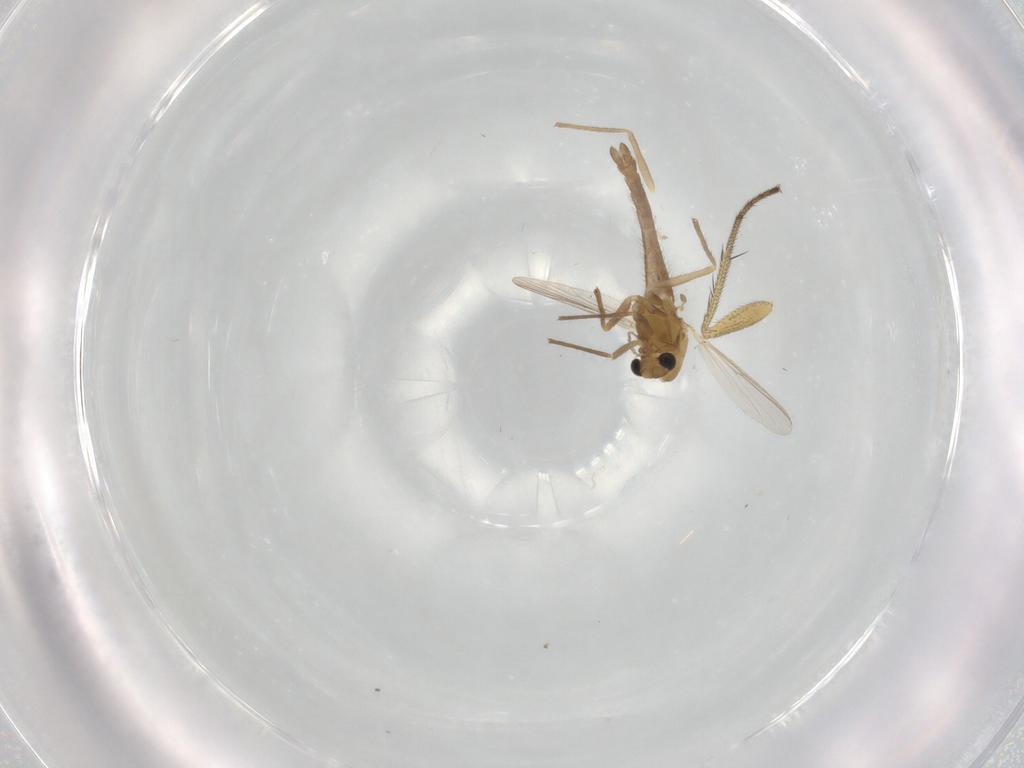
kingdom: Animalia
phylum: Arthropoda
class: Insecta
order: Diptera
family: Chironomidae
